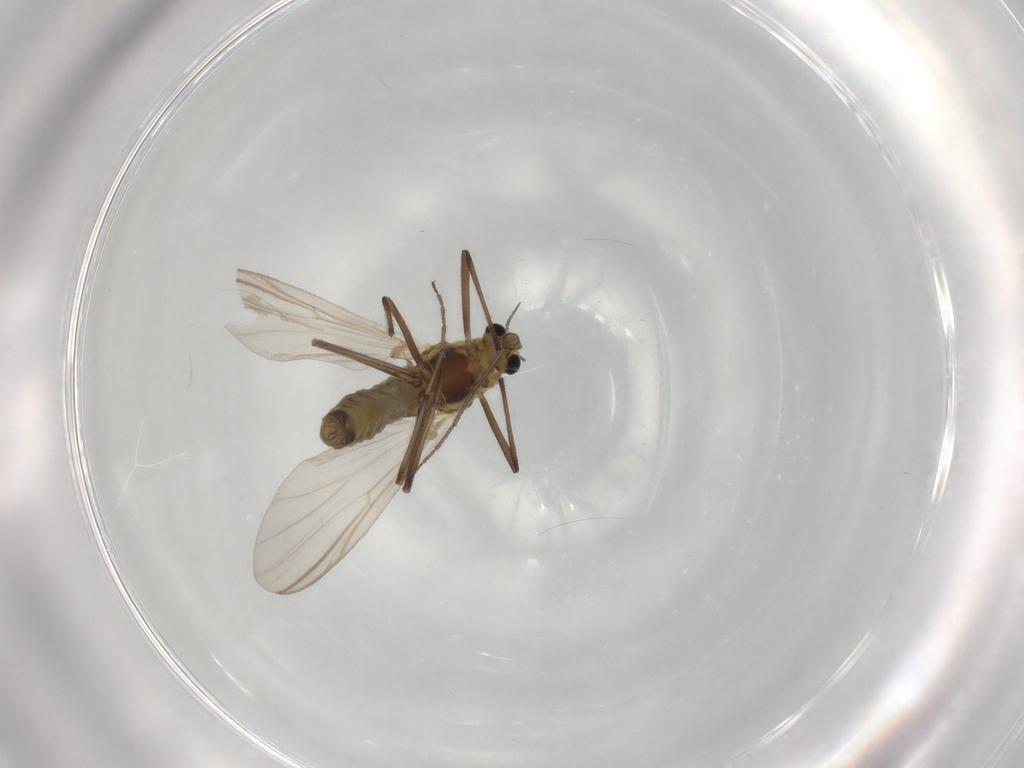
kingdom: Animalia
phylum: Arthropoda
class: Insecta
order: Diptera
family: Chironomidae
